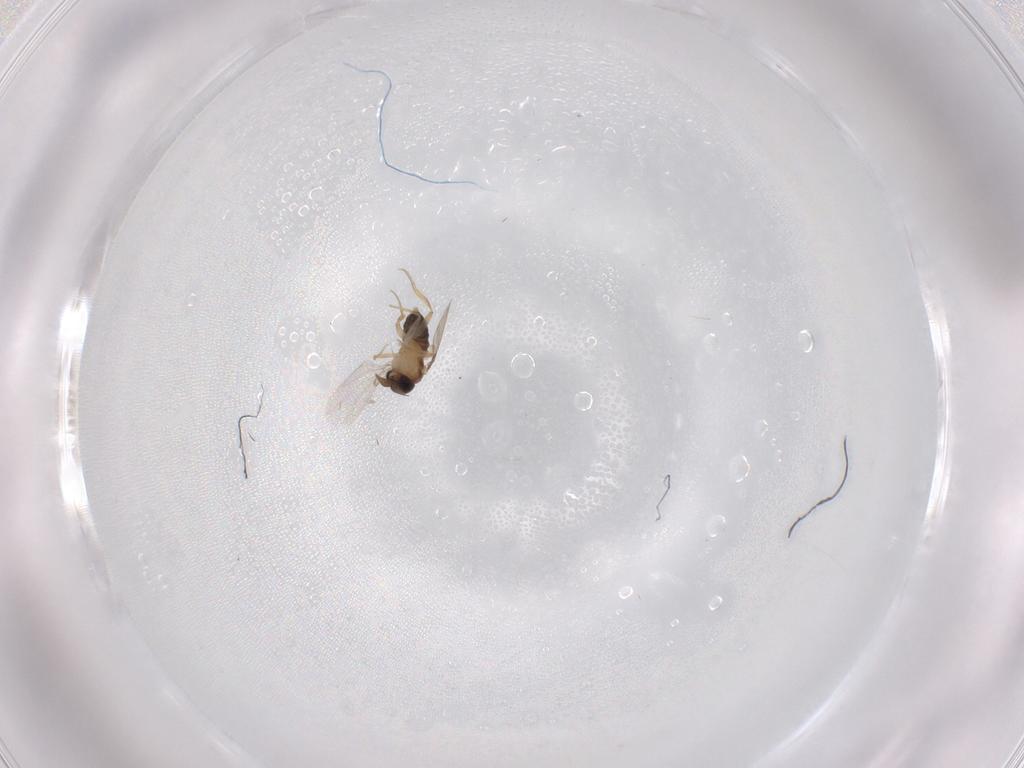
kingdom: Animalia
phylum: Arthropoda
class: Insecta
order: Diptera
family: Phoridae
